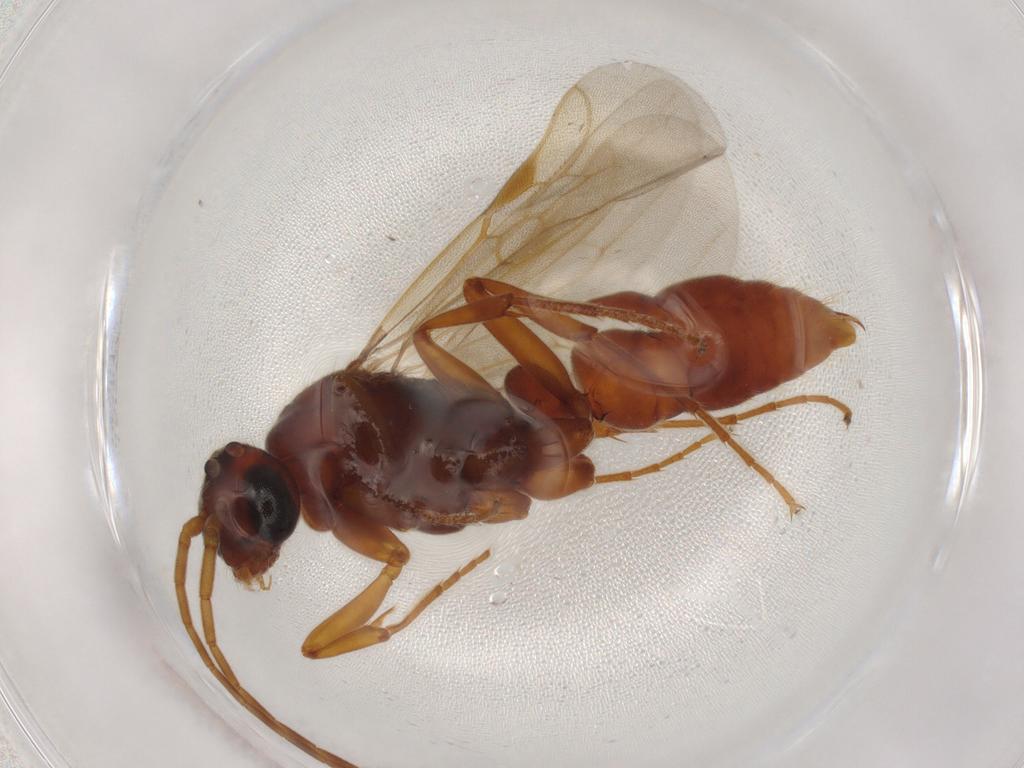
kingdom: Animalia
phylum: Arthropoda
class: Insecta
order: Hymenoptera
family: Formicidae
